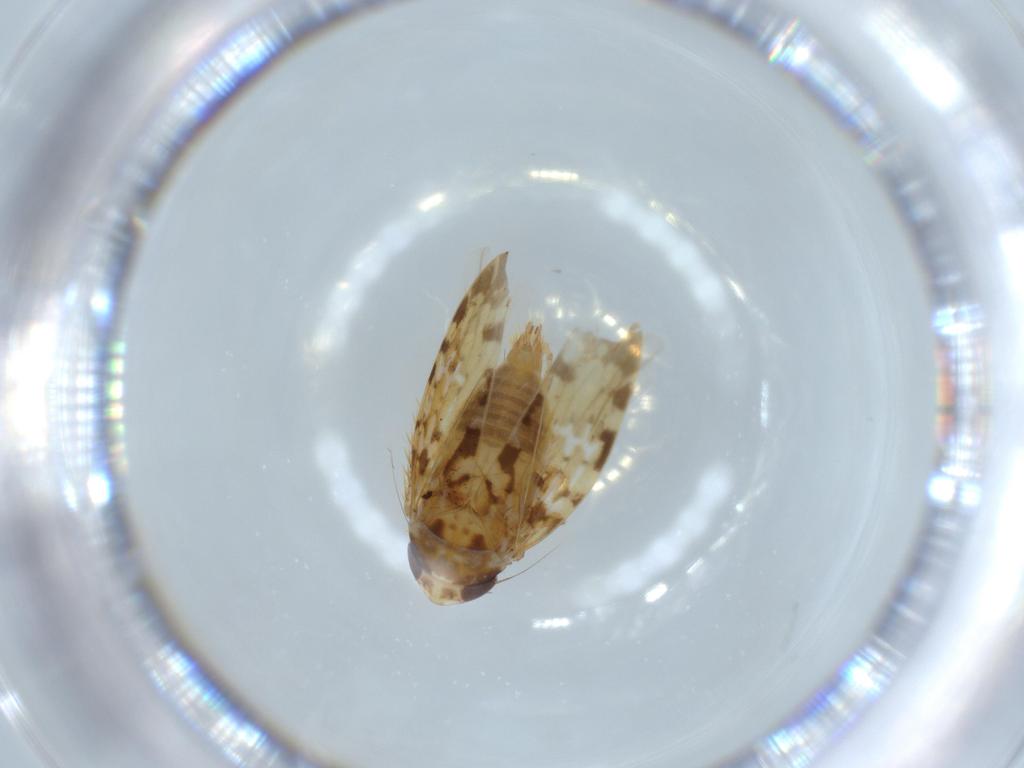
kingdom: Animalia
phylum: Arthropoda
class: Insecta
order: Hemiptera
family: Cicadellidae
